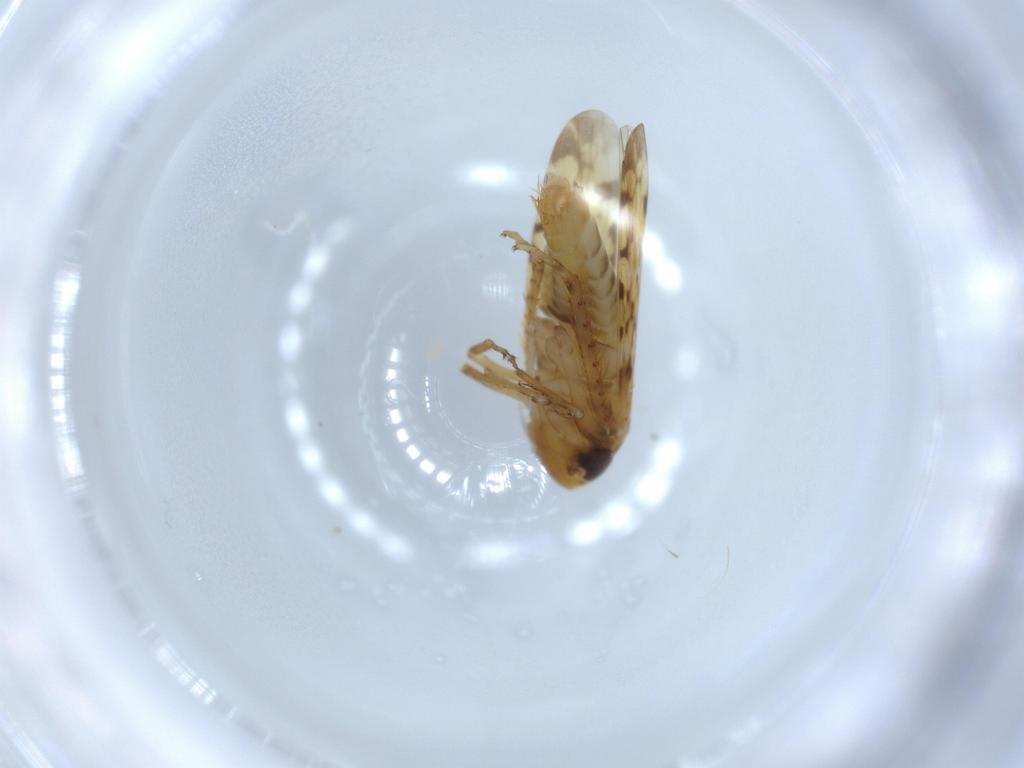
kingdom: Animalia
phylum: Arthropoda
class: Insecta
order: Hemiptera
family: Cicadellidae
